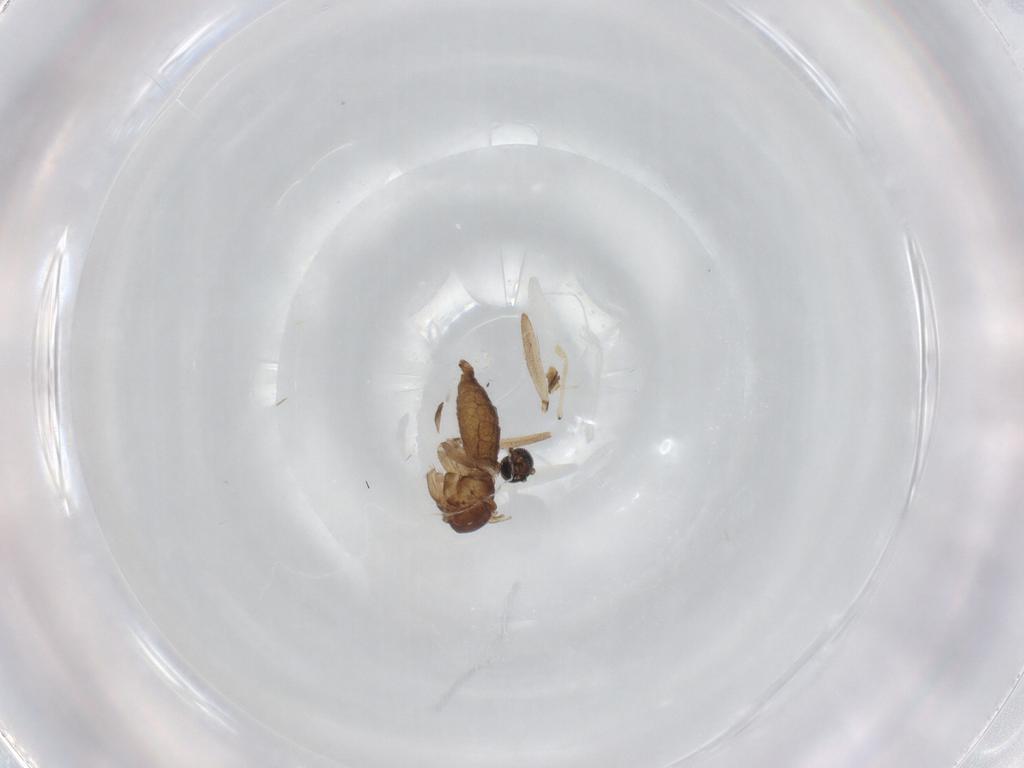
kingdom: Animalia
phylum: Arthropoda
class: Insecta
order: Diptera
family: Sciaridae
